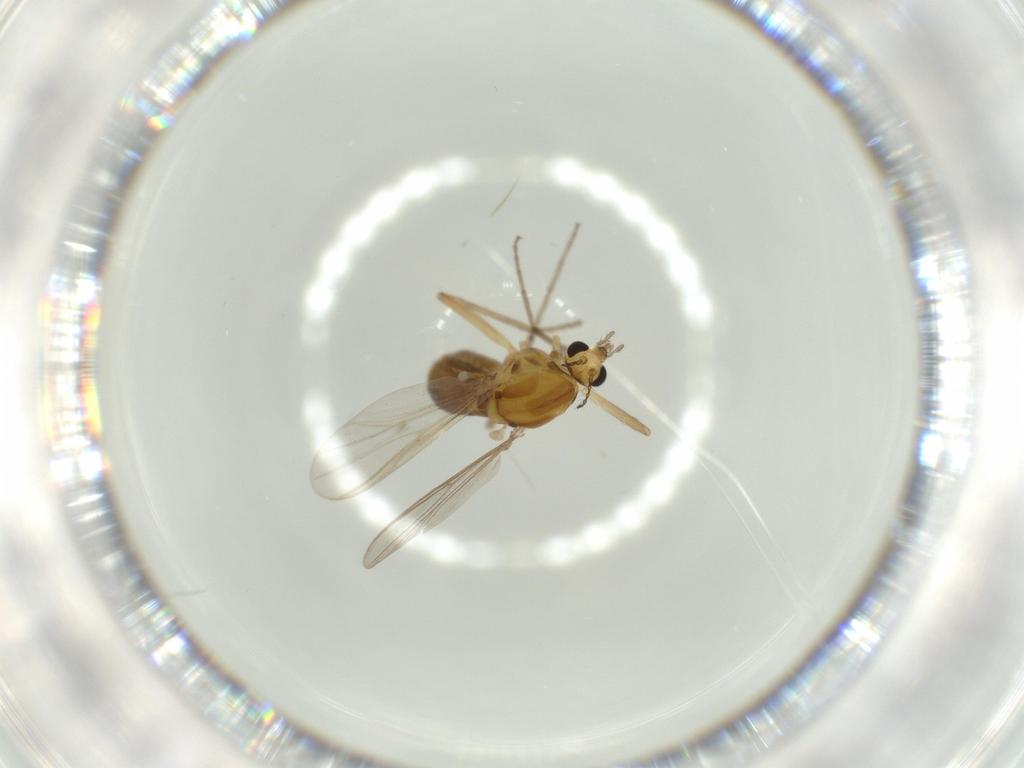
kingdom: Animalia
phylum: Arthropoda
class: Insecta
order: Diptera
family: Chironomidae
